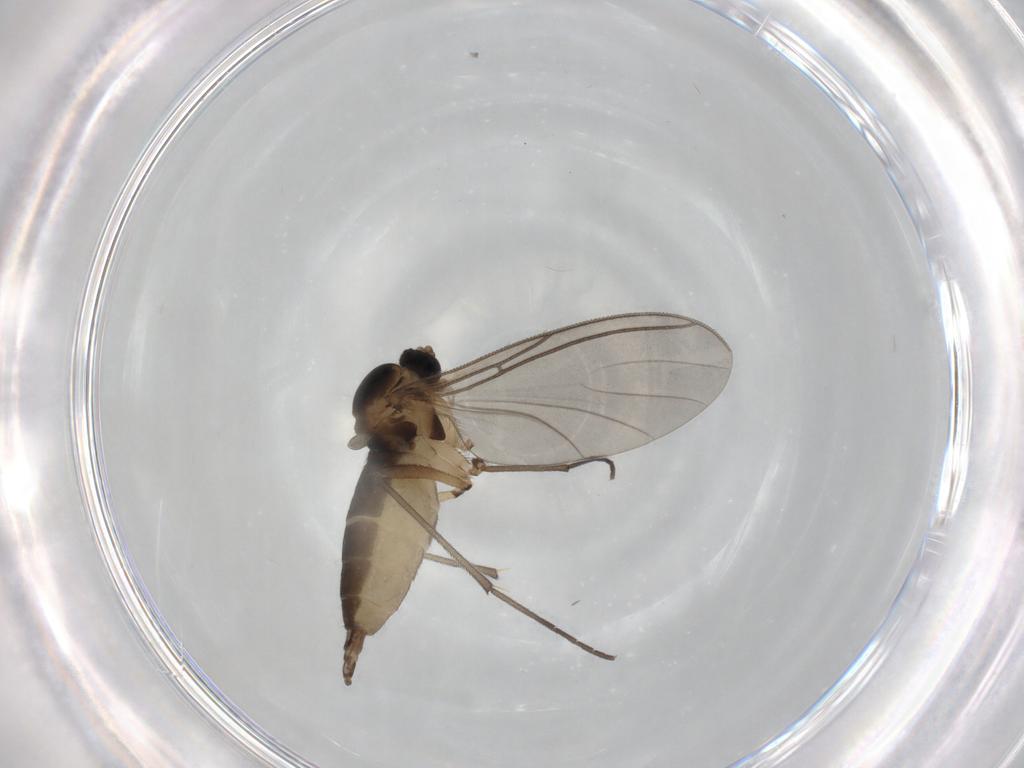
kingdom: Animalia
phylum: Arthropoda
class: Insecta
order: Diptera
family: Sciaridae
